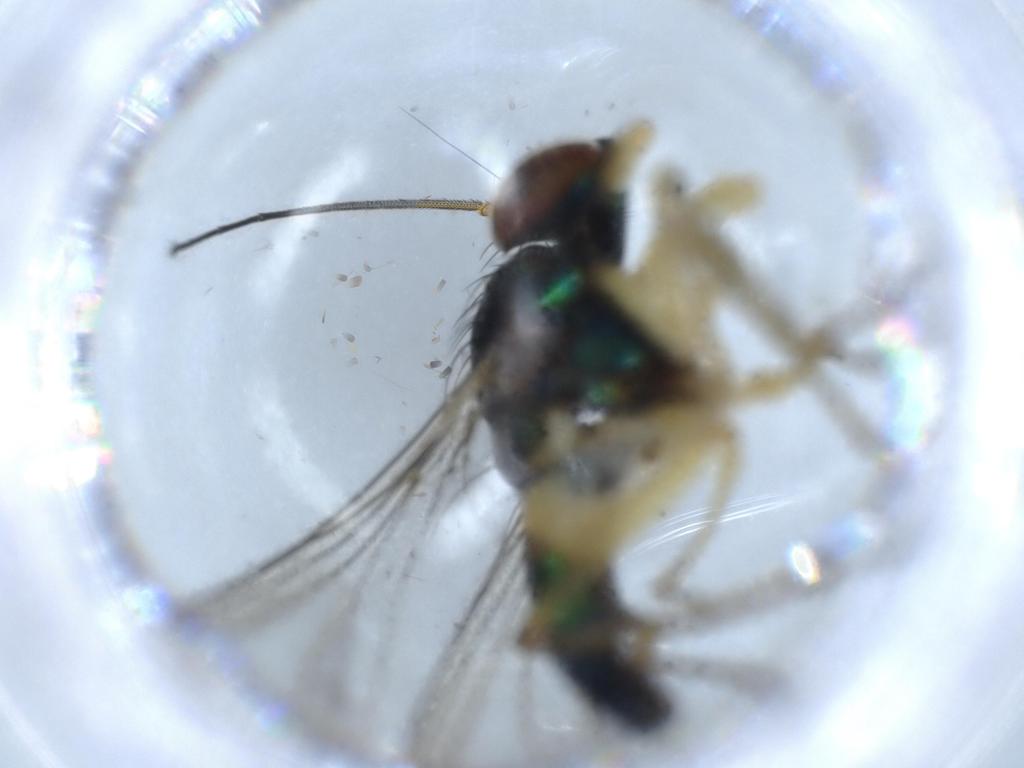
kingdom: Animalia
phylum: Arthropoda
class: Insecta
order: Diptera
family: Dolichopodidae
